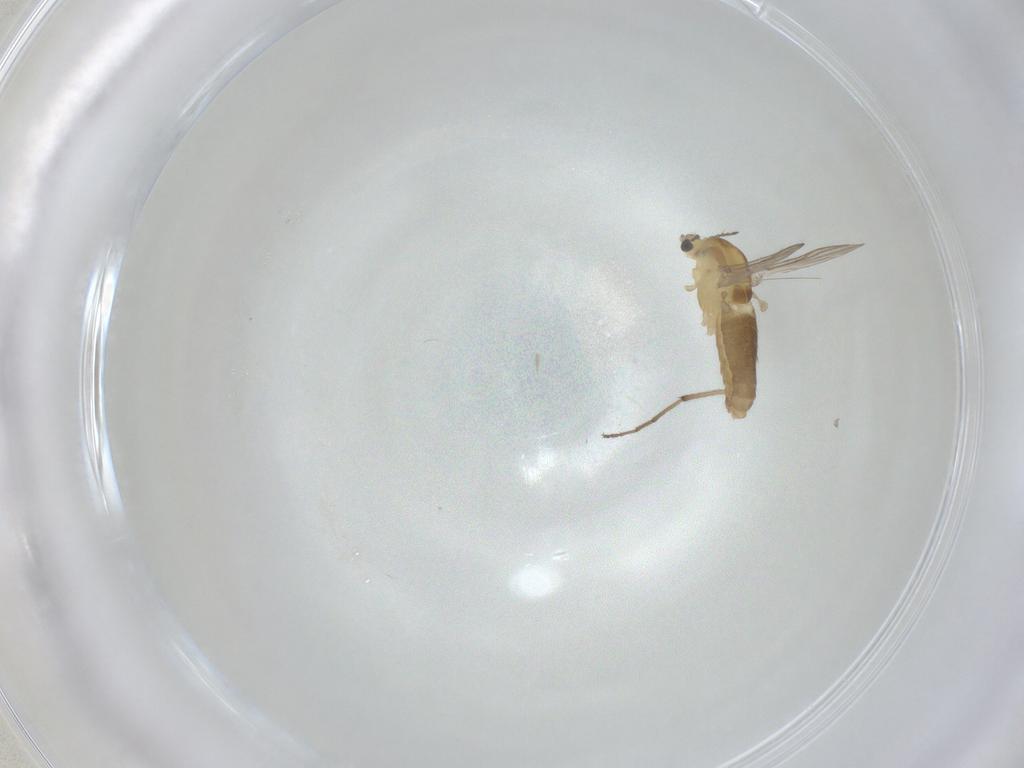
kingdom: Animalia
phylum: Arthropoda
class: Insecta
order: Diptera
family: Chironomidae
